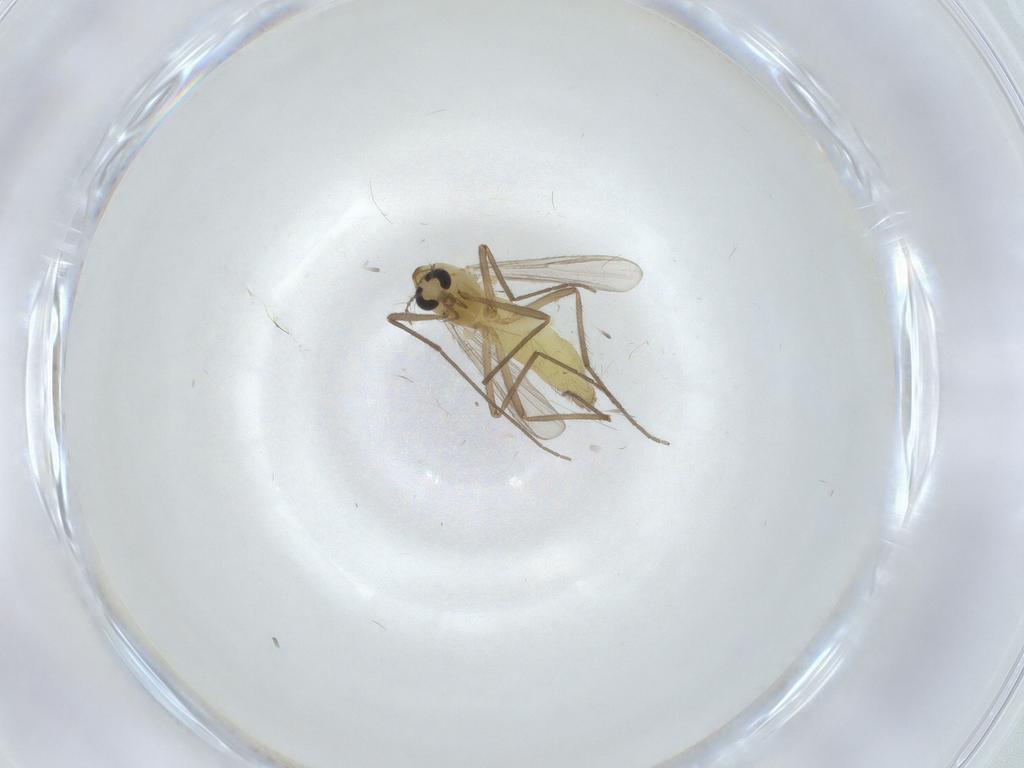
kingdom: Animalia
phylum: Arthropoda
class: Insecta
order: Diptera
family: Chironomidae
